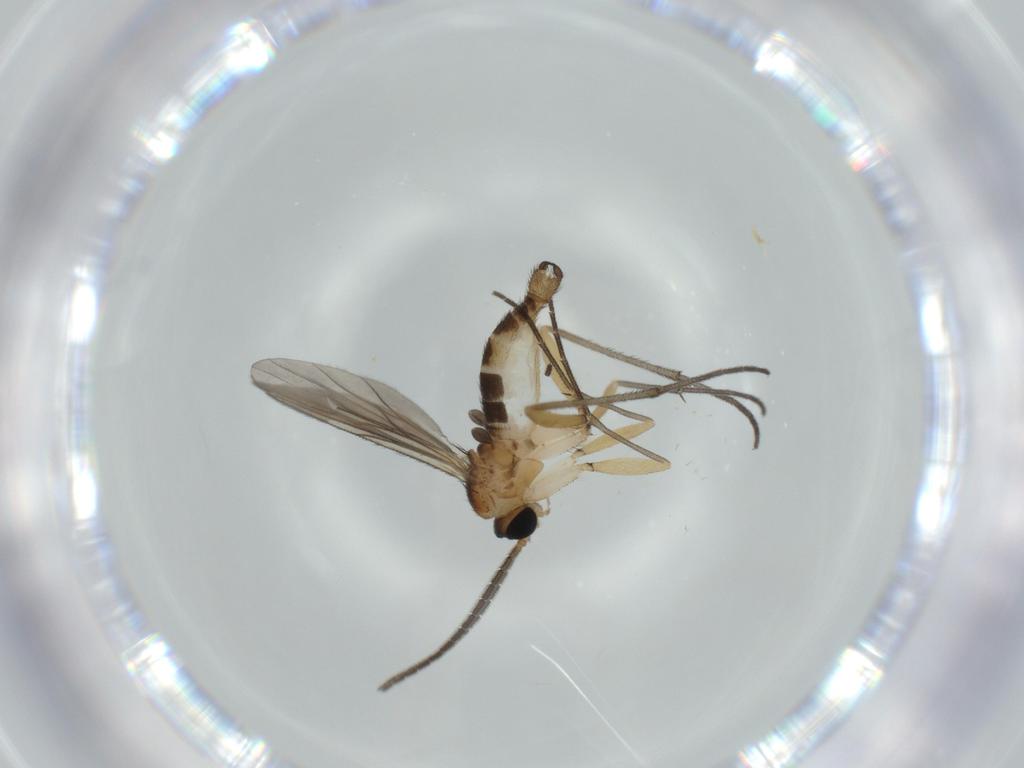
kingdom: Animalia
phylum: Arthropoda
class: Insecta
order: Diptera
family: Sciaridae
